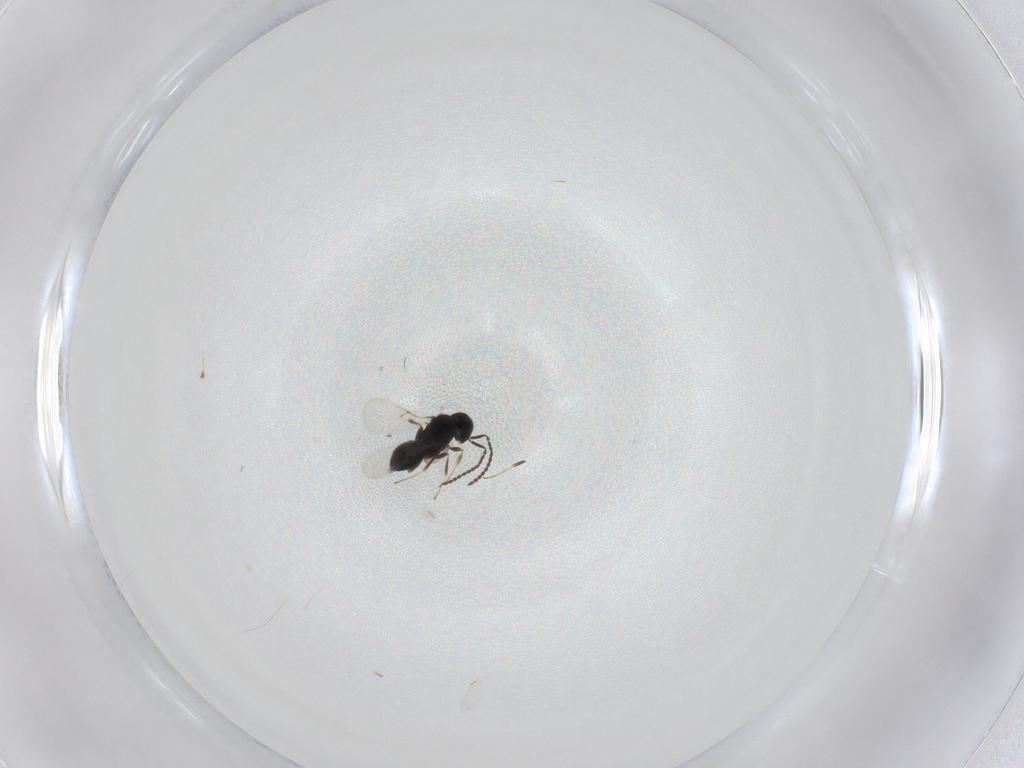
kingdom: Animalia
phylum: Arthropoda
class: Insecta
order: Hymenoptera
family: Scelionidae
